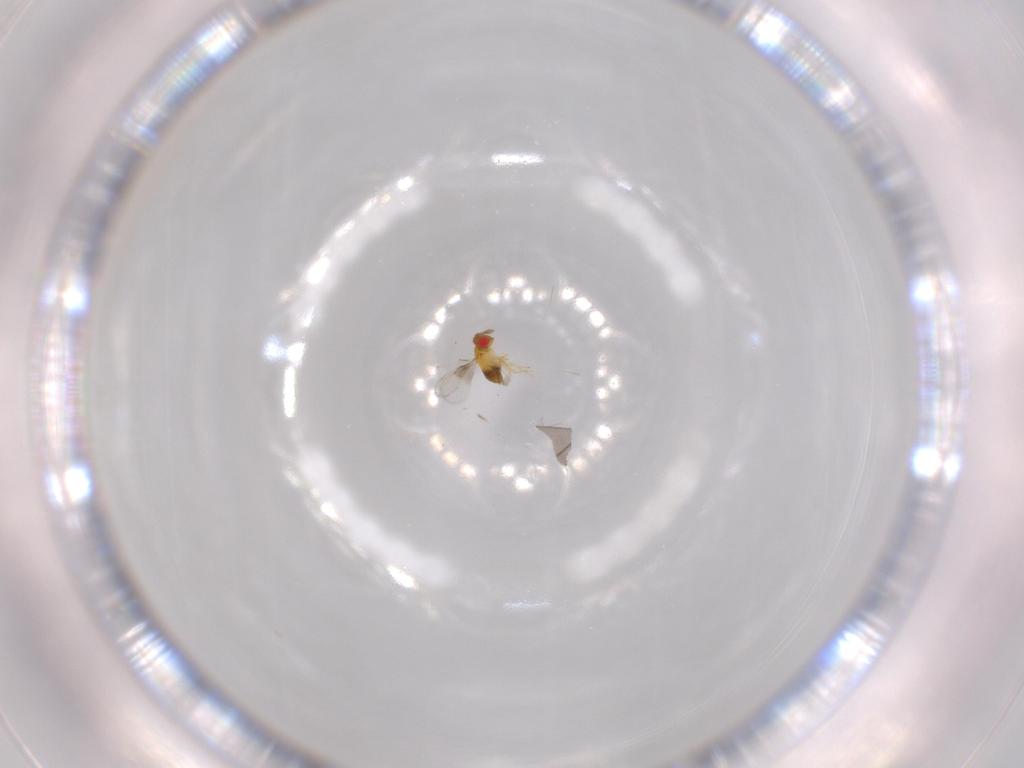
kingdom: Animalia
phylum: Arthropoda
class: Insecta
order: Hymenoptera
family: Trichogrammatidae
